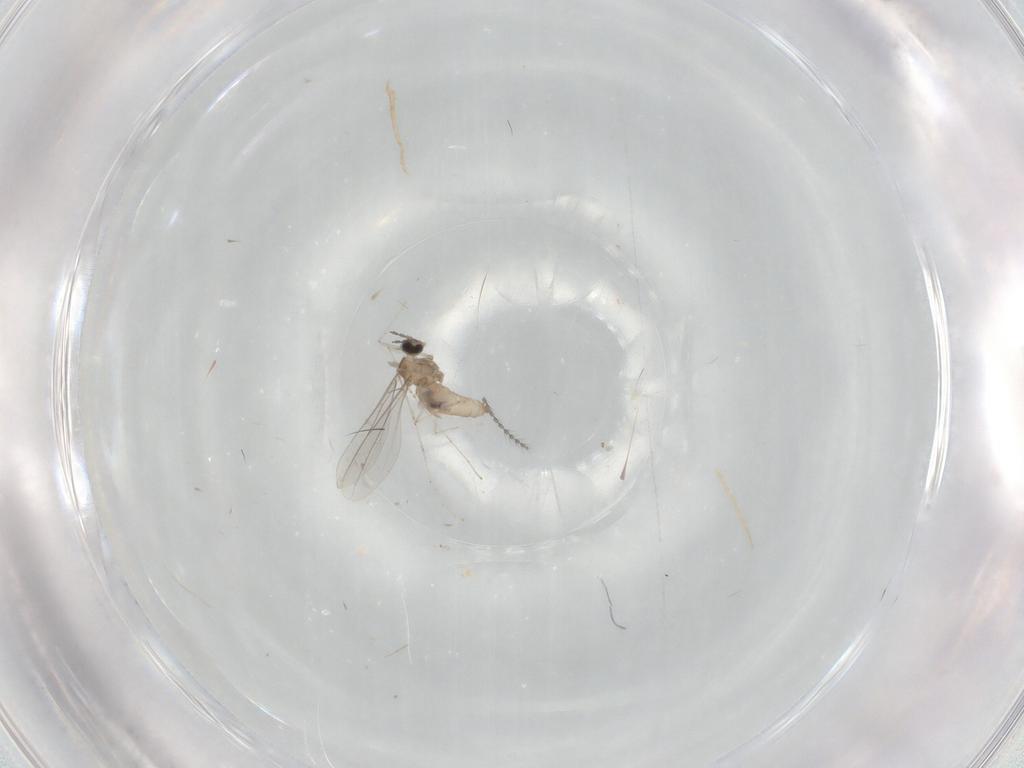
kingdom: Animalia
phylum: Arthropoda
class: Insecta
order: Diptera
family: Cecidomyiidae
